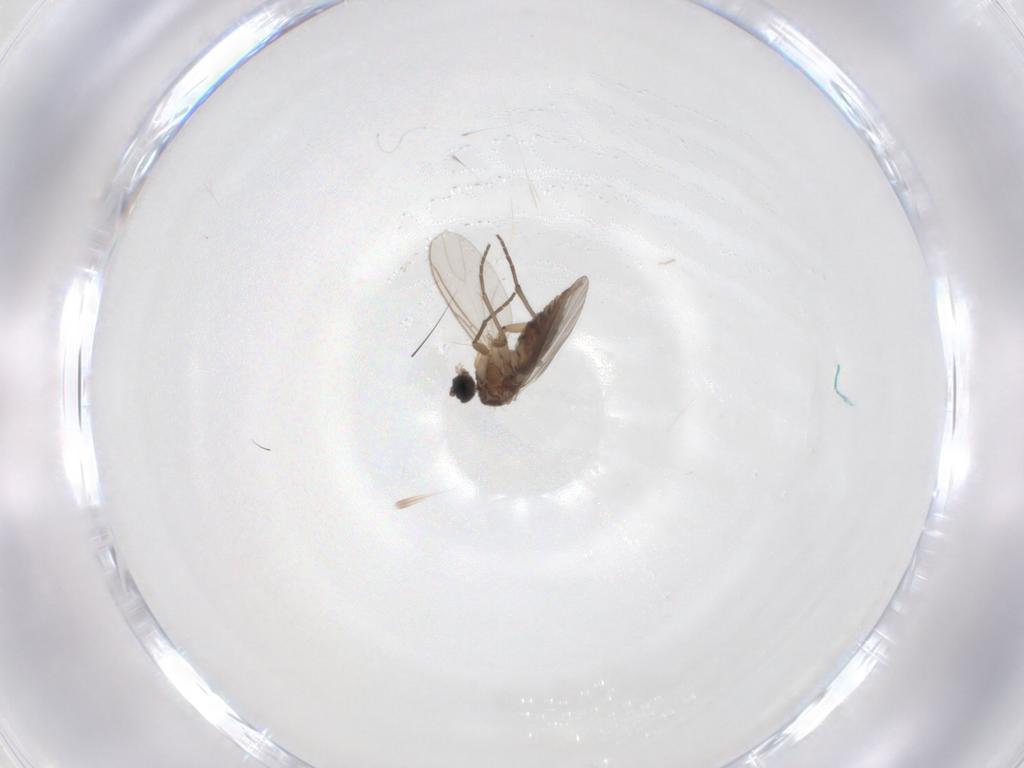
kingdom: Animalia
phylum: Arthropoda
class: Insecta
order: Diptera
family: Sciaridae
